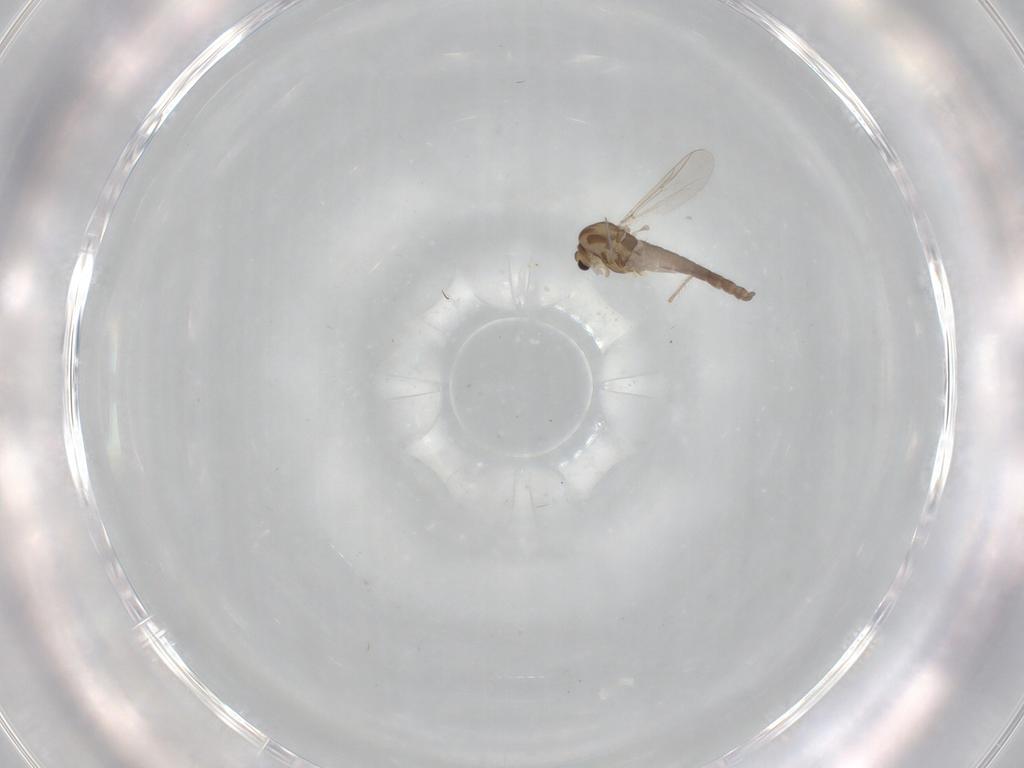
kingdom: Animalia
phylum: Arthropoda
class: Insecta
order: Diptera
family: Chironomidae
